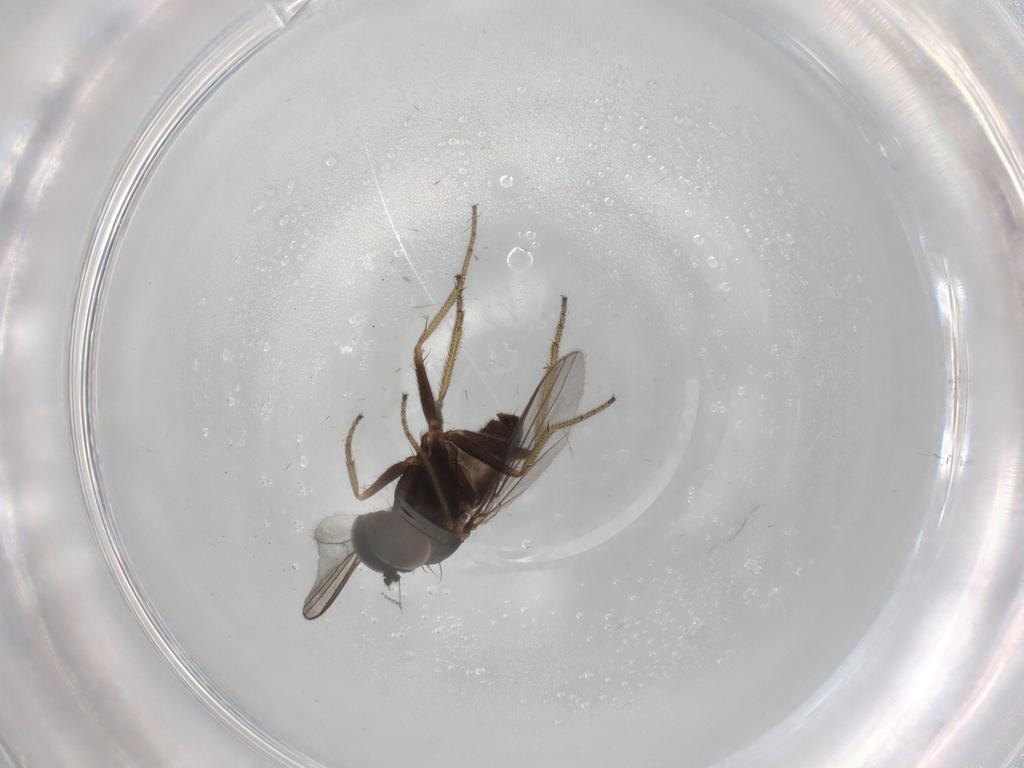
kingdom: Animalia
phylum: Arthropoda
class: Insecta
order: Diptera
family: Dolichopodidae
